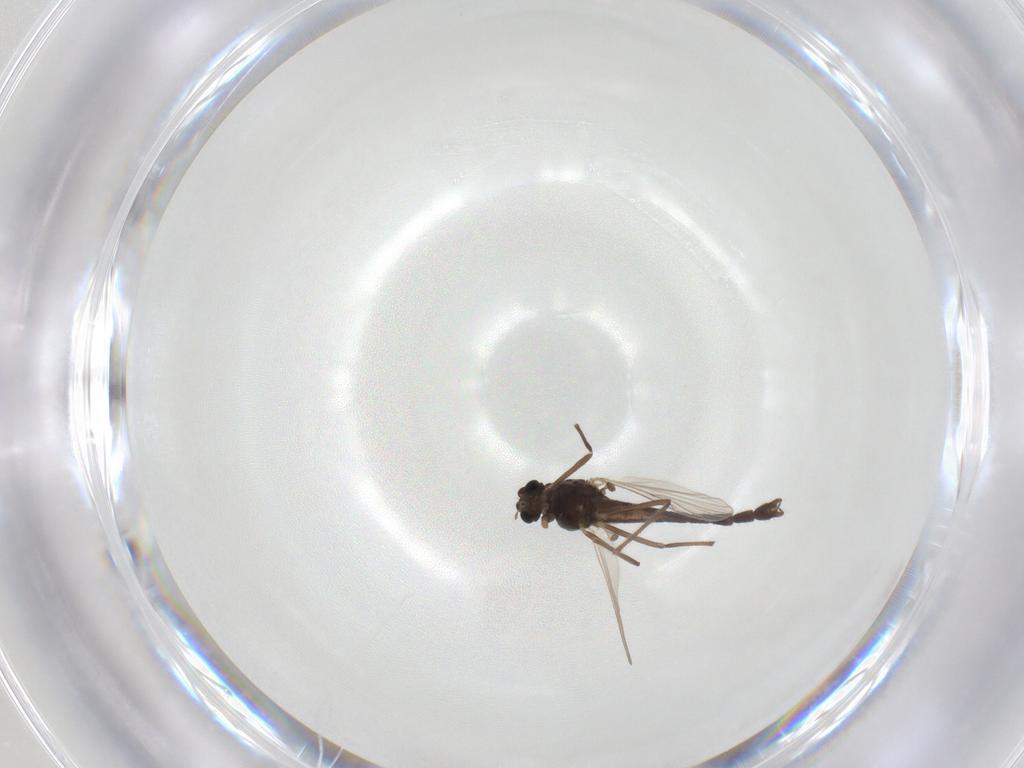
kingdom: Animalia
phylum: Arthropoda
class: Insecta
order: Diptera
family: Chironomidae
